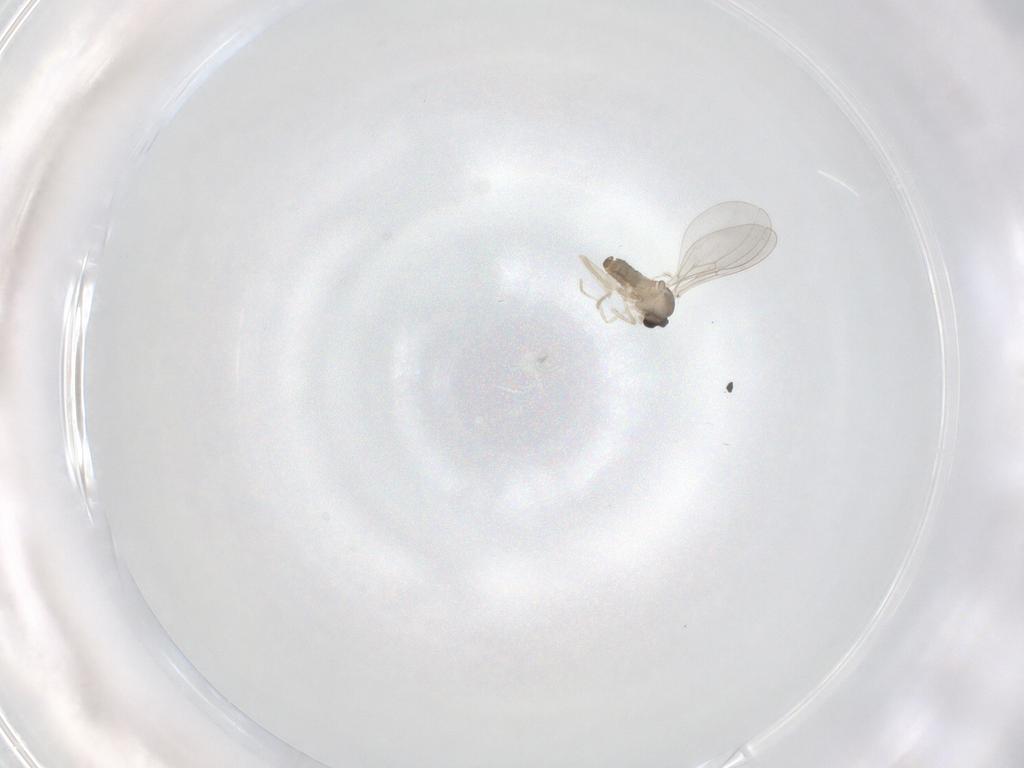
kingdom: Animalia
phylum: Arthropoda
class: Insecta
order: Diptera
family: Cecidomyiidae
